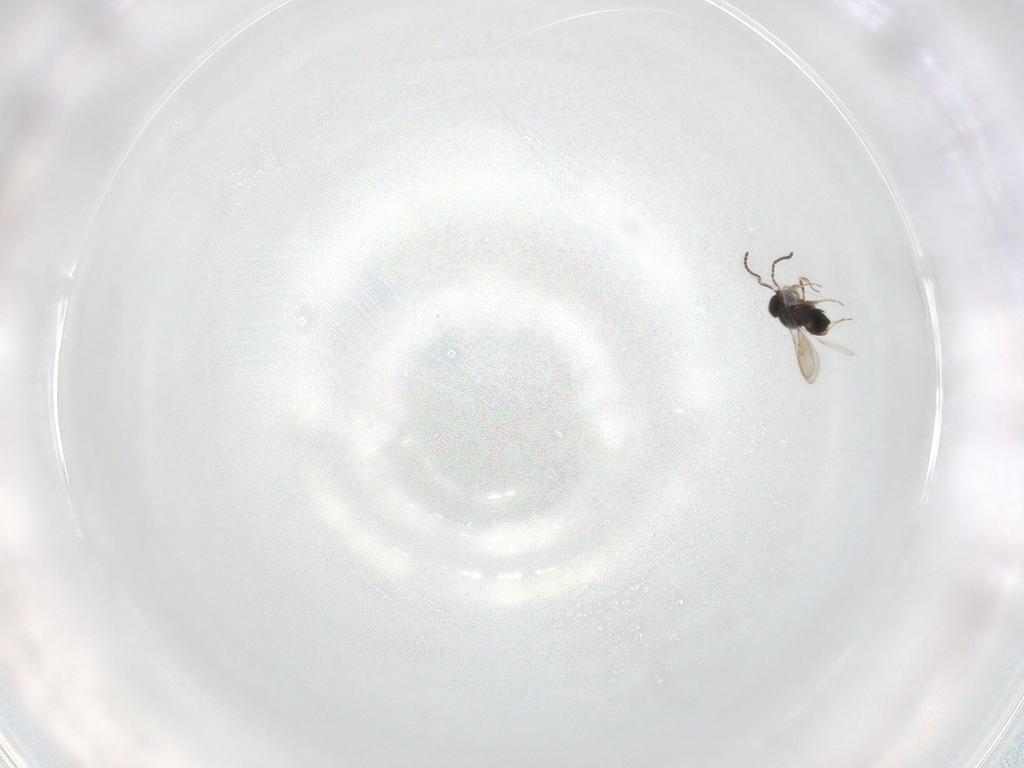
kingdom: Animalia
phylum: Arthropoda
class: Insecta
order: Hymenoptera
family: Scelionidae
